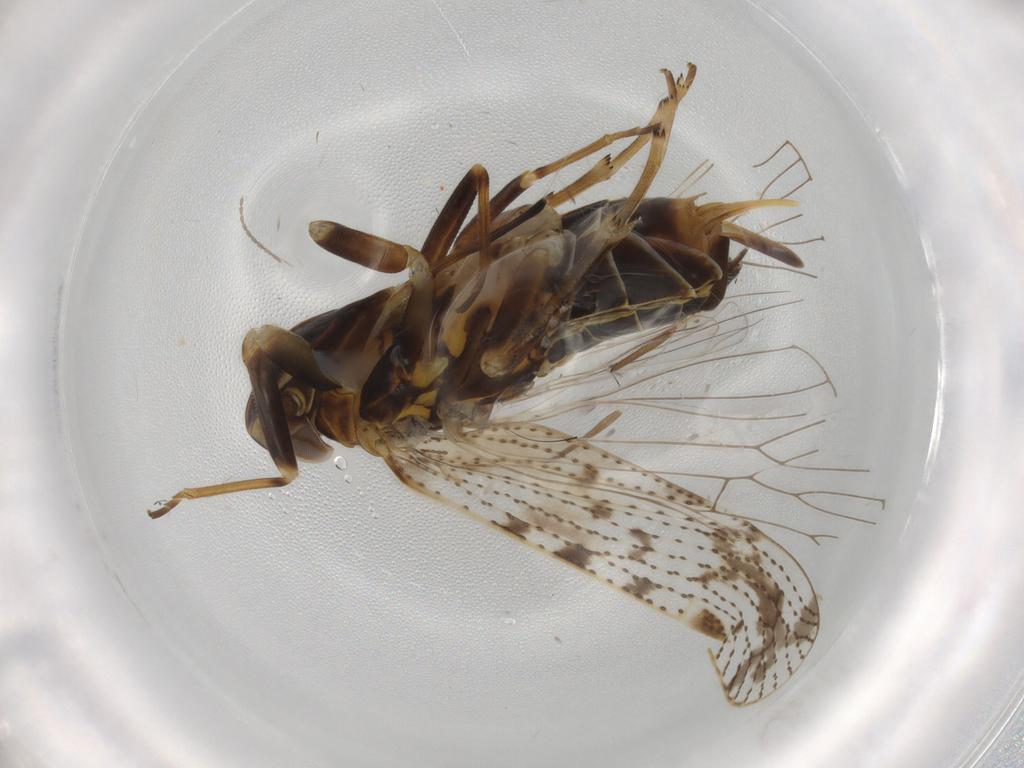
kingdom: Animalia
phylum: Arthropoda
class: Insecta
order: Hemiptera
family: Cixiidae
